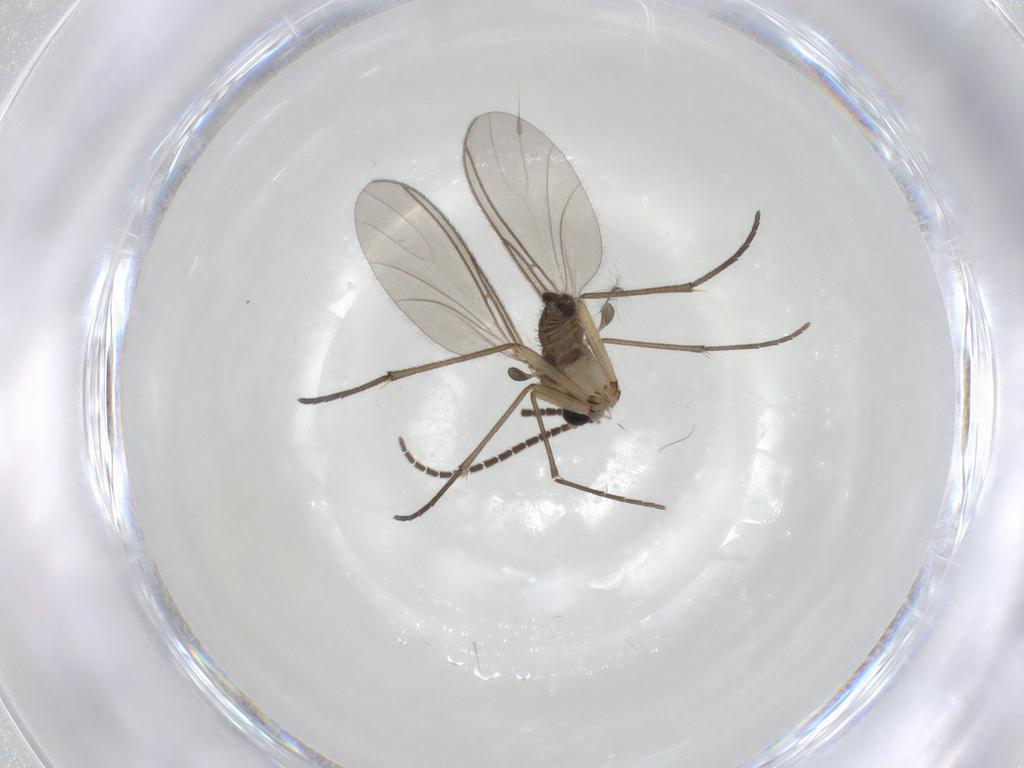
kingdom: Animalia
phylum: Arthropoda
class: Insecta
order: Diptera
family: Sciaridae
